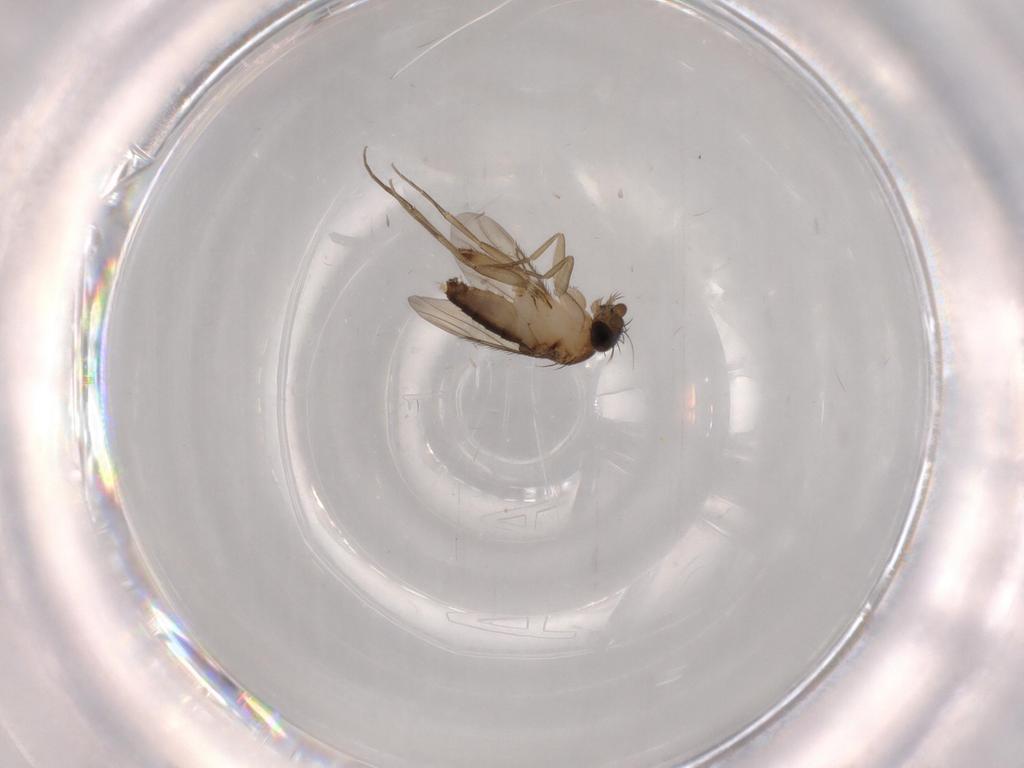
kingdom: Animalia
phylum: Arthropoda
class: Insecta
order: Diptera
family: Phoridae
